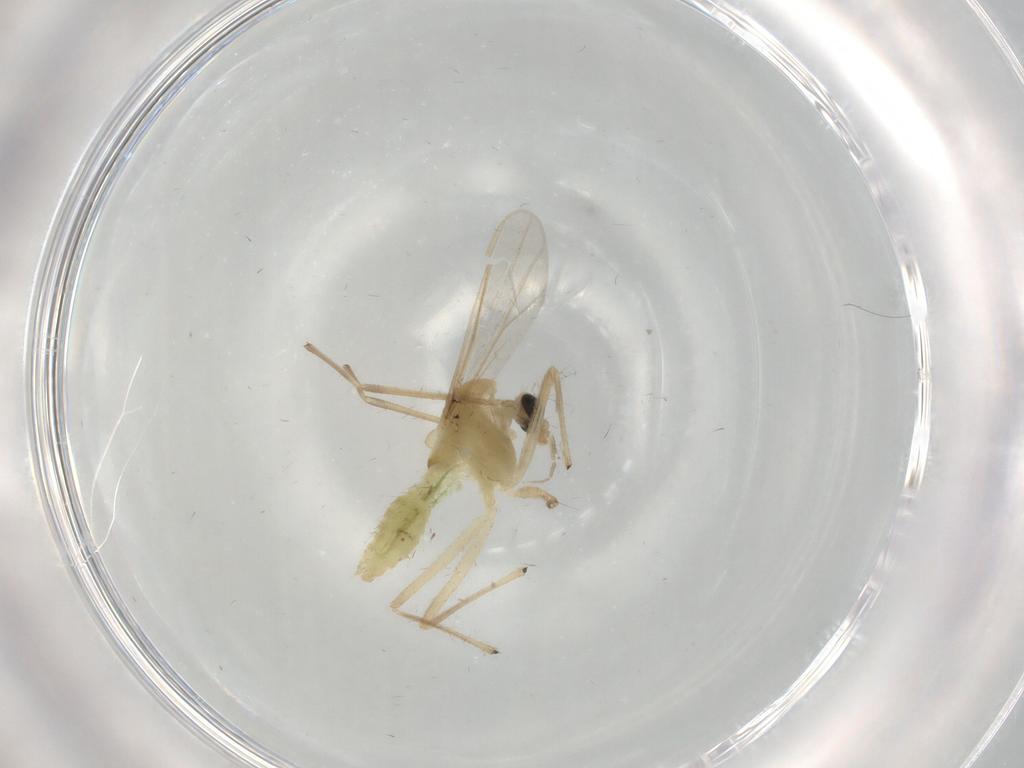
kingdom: Animalia
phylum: Arthropoda
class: Insecta
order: Diptera
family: Chironomidae
